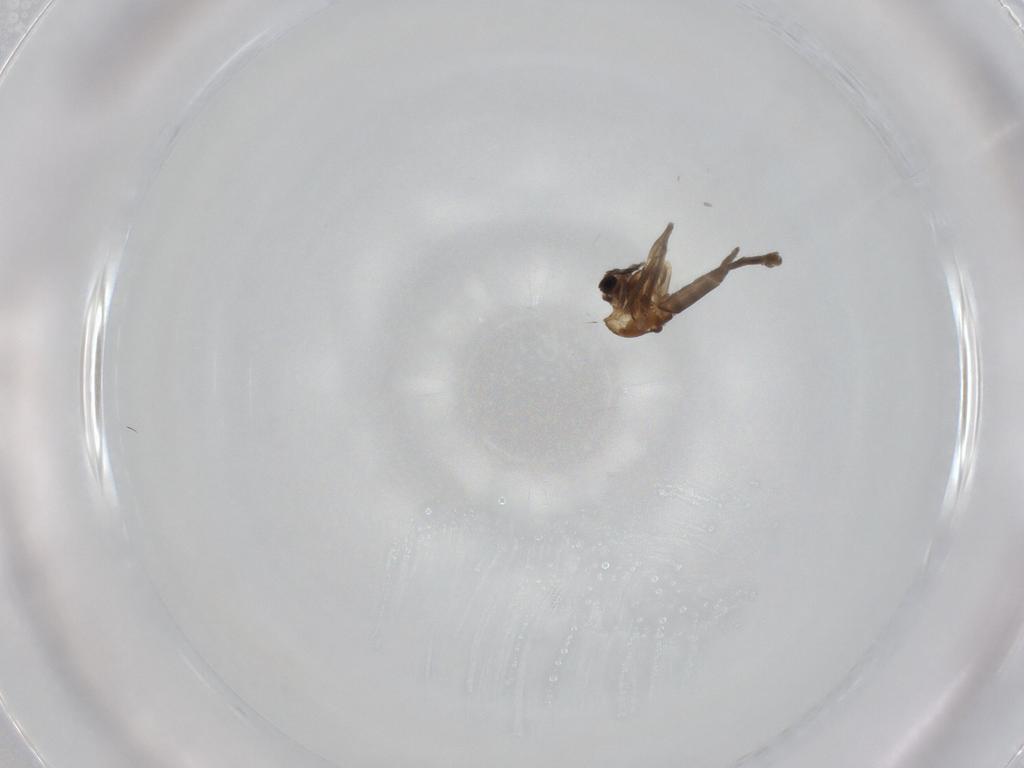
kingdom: Animalia
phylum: Arthropoda
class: Insecta
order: Diptera
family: Chironomidae
